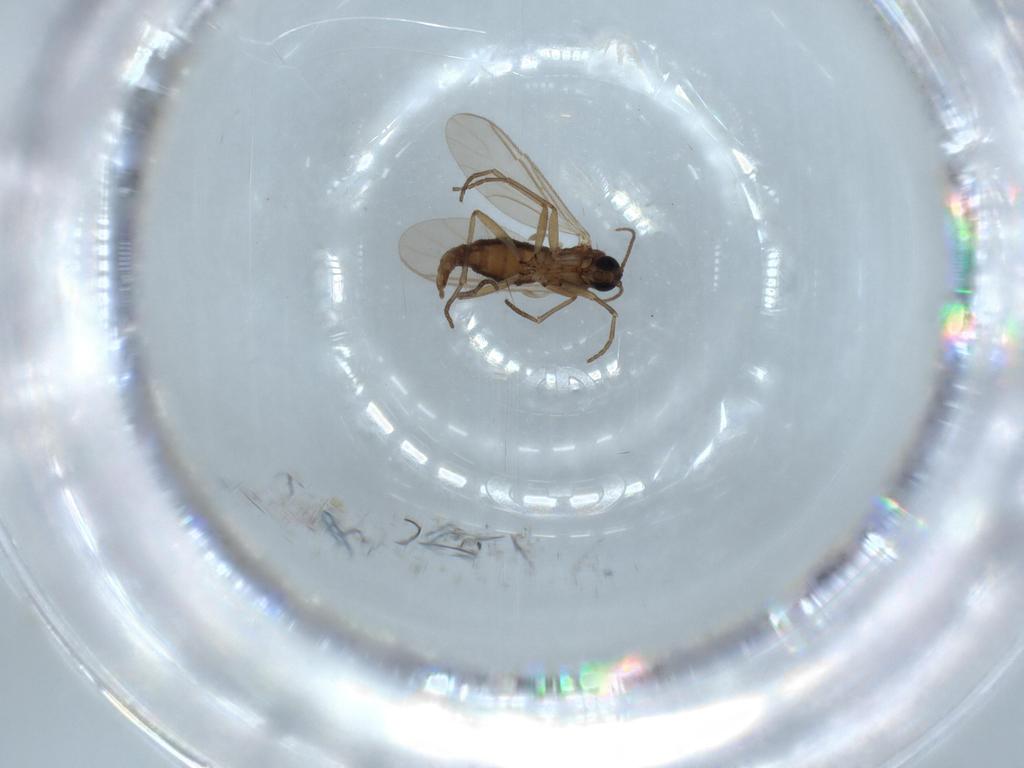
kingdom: Animalia
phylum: Arthropoda
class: Insecta
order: Diptera
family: Sciaridae
